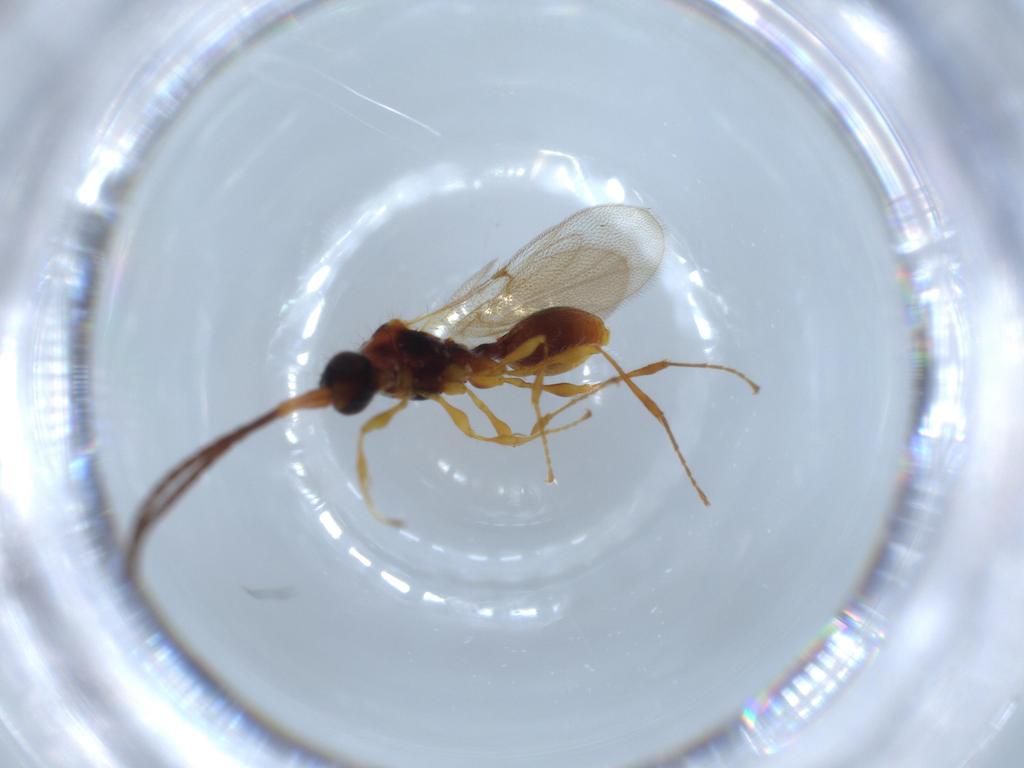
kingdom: Animalia
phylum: Arthropoda
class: Insecta
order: Hymenoptera
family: Diapriidae
